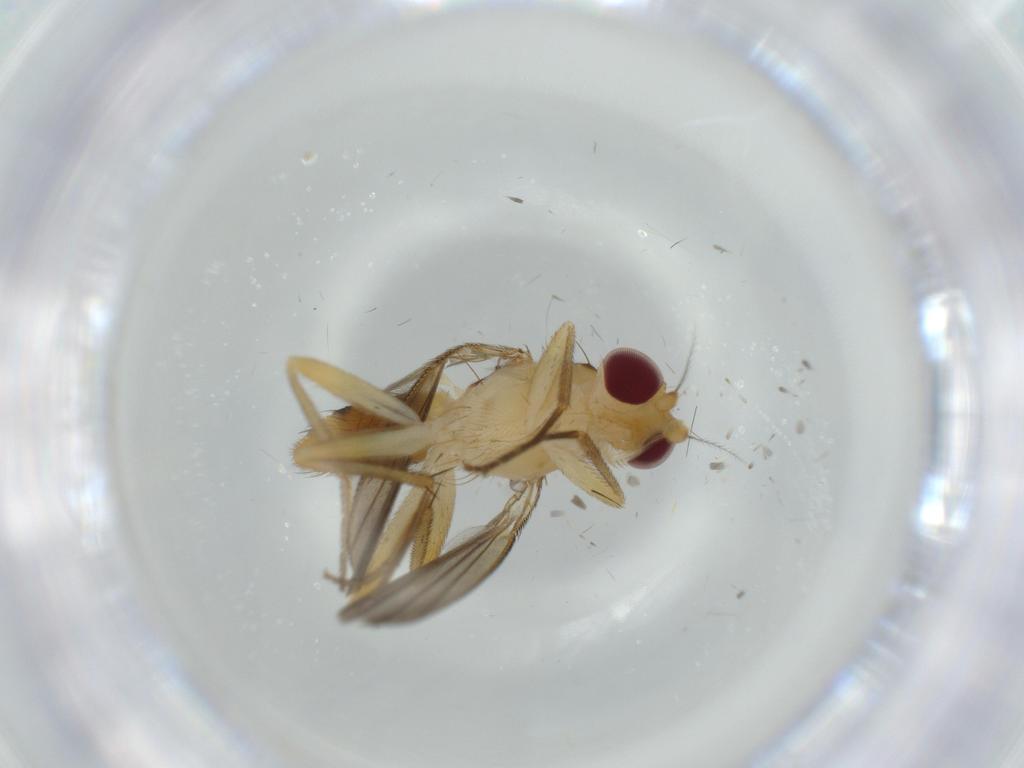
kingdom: Animalia
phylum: Arthropoda
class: Insecta
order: Diptera
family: Clusiidae
